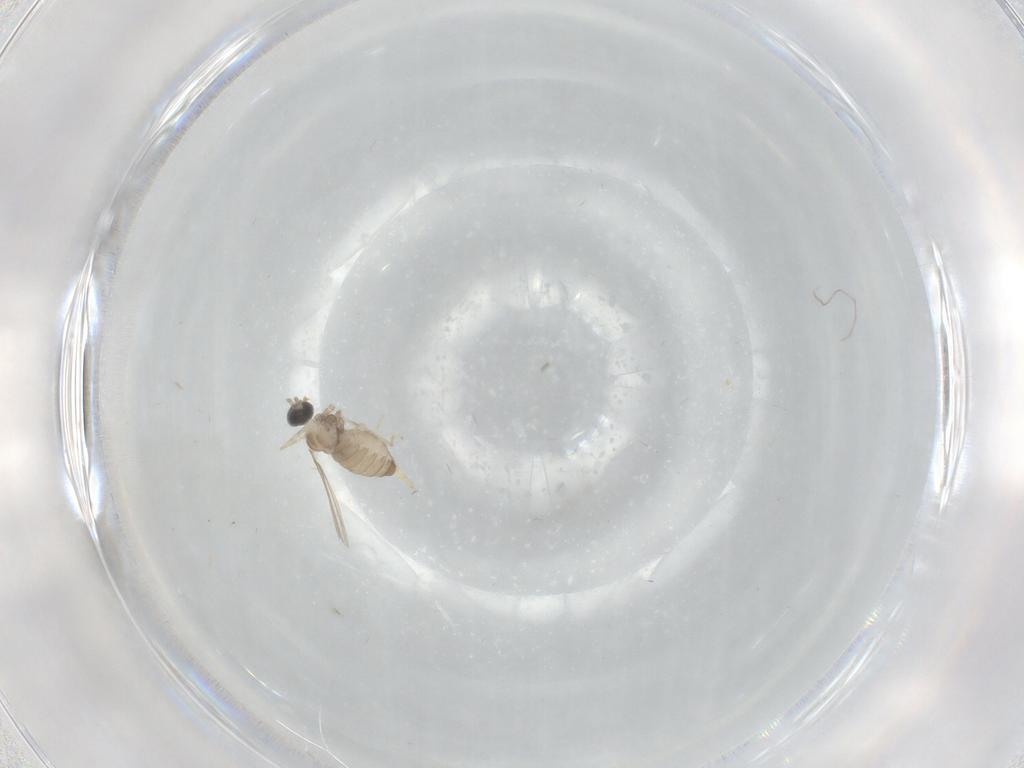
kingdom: Animalia
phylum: Arthropoda
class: Insecta
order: Diptera
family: Cecidomyiidae
